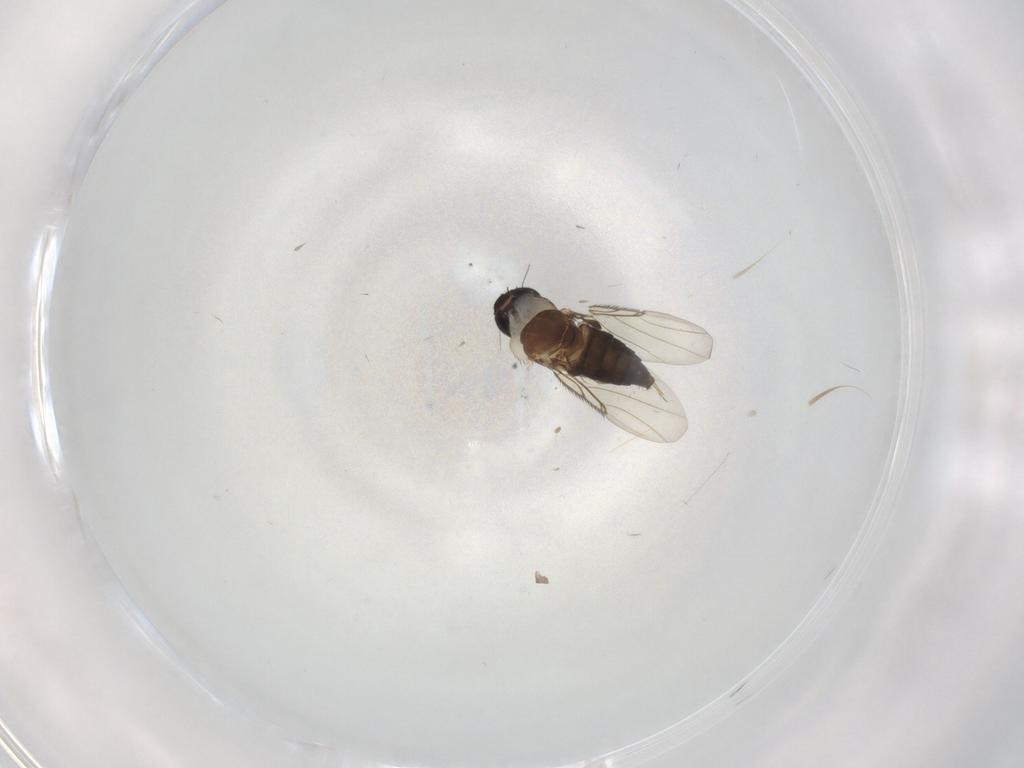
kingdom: Animalia
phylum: Arthropoda
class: Insecta
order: Diptera
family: Phoridae
